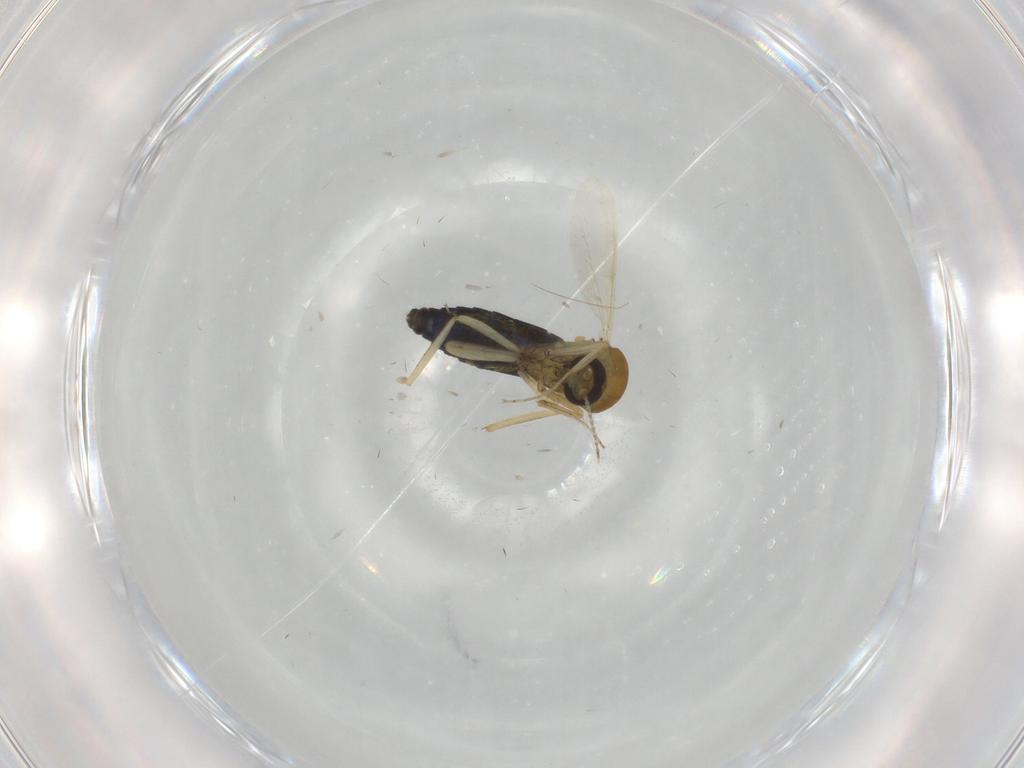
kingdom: Animalia
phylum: Arthropoda
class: Insecta
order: Diptera
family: Ceratopogonidae
